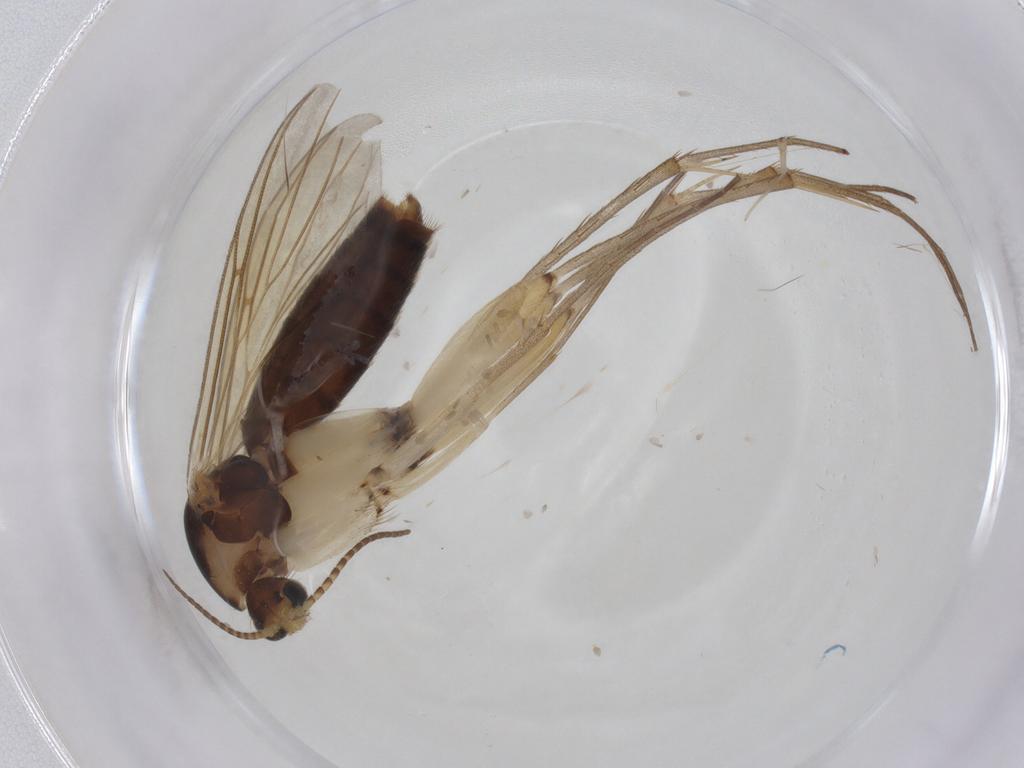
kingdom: Animalia
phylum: Arthropoda
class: Insecta
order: Diptera
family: Mycetophilidae
